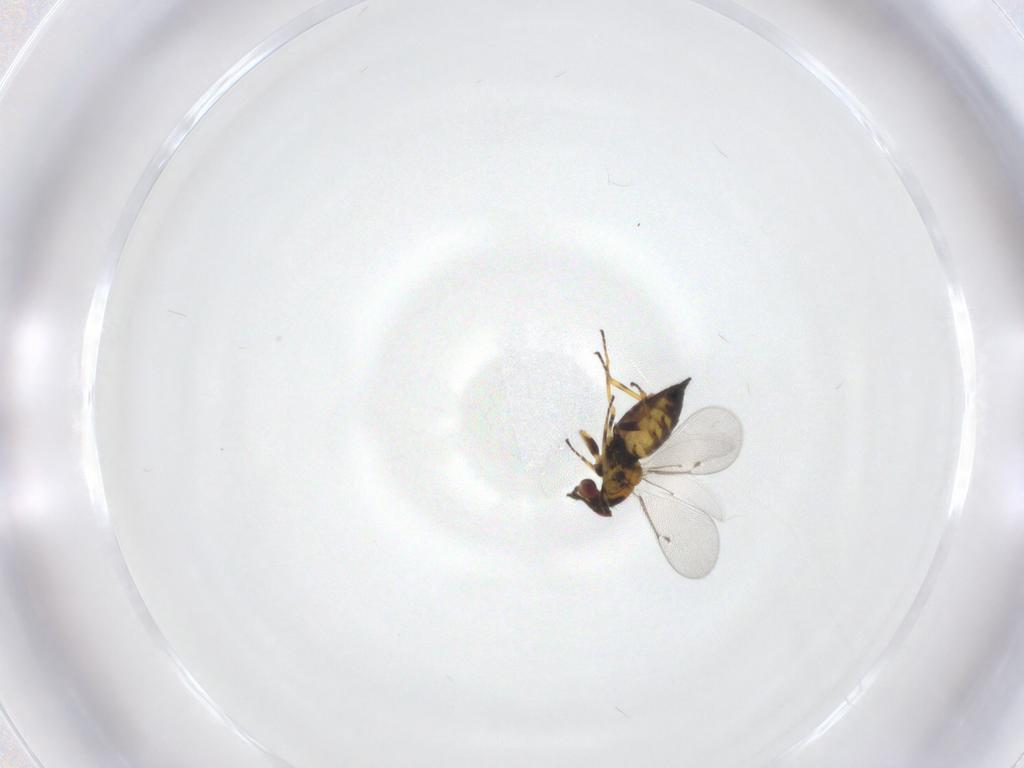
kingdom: Animalia
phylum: Arthropoda
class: Insecta
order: Hymenoptera
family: Eulophidae
